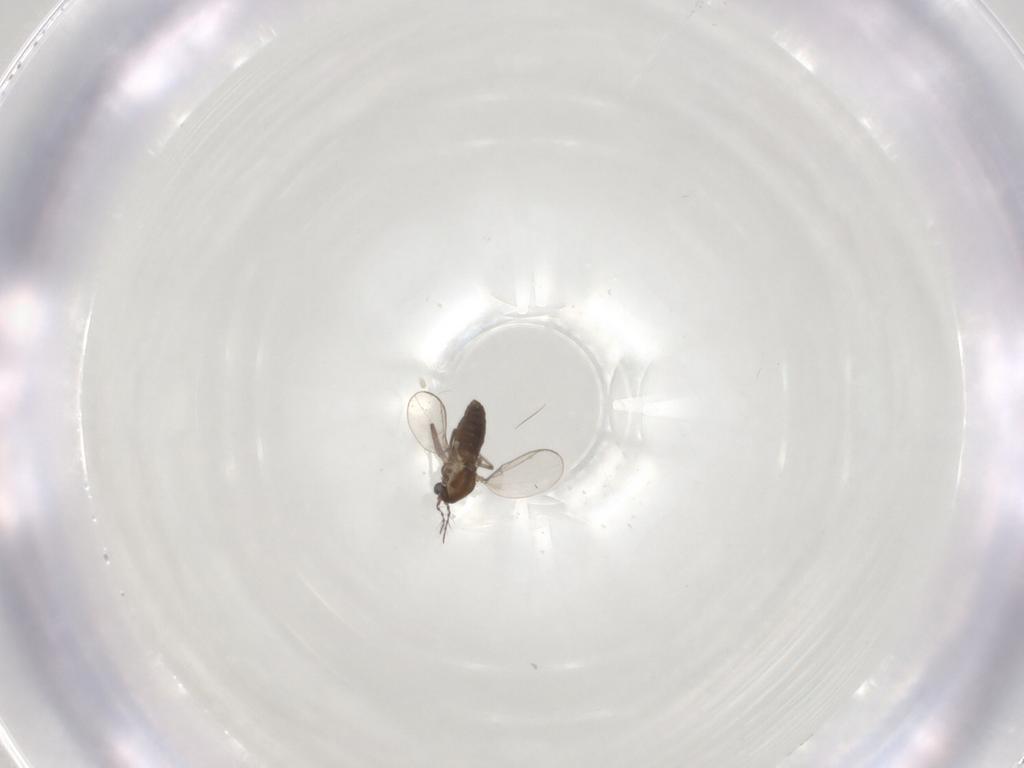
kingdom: Animalia
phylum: Arthropoda
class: Insecta
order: Diptera
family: Chironomidae
